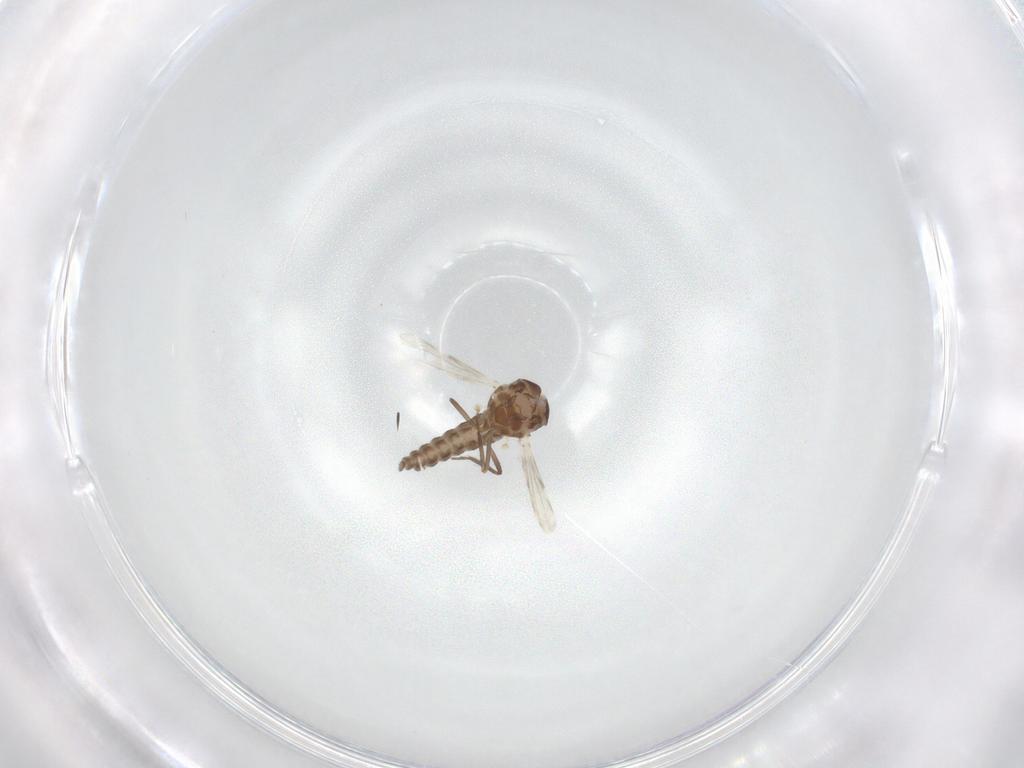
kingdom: Animalia
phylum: Arthropoda
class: Insecta
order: Diptera
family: Ceratopogonidae
